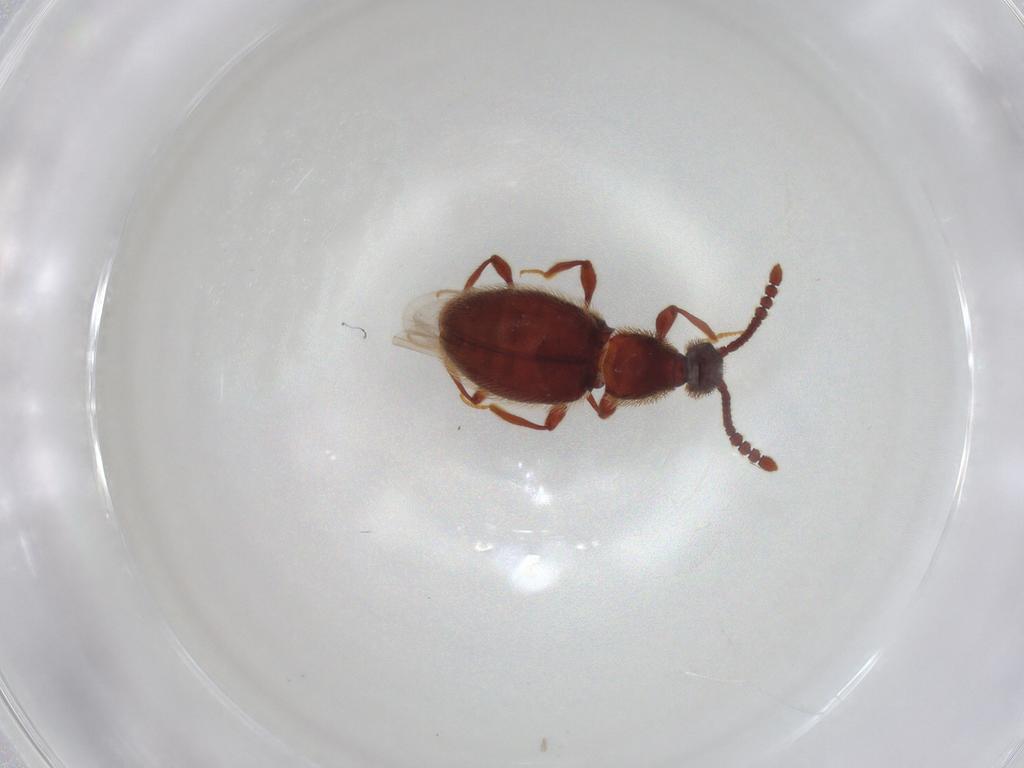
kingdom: Animalia
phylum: Arthropoda
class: Insecta
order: Coleoptera
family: Staphylinidae
